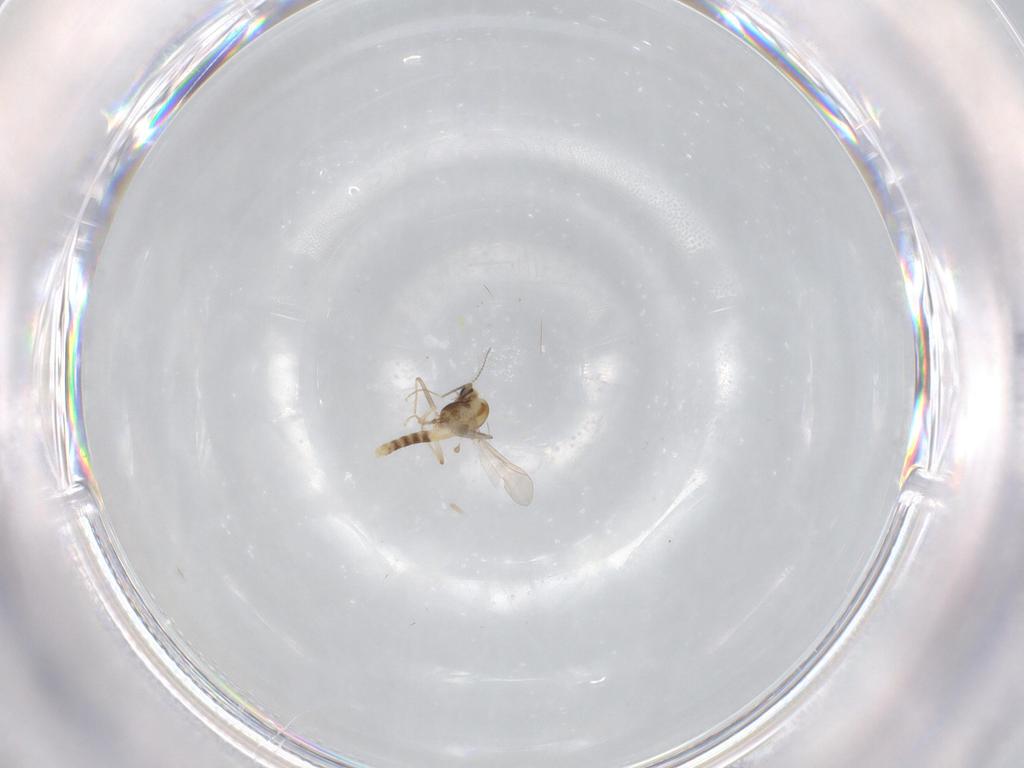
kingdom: Animalia
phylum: Arthropoda
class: Insecta
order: Diptera
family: Chironomidae
